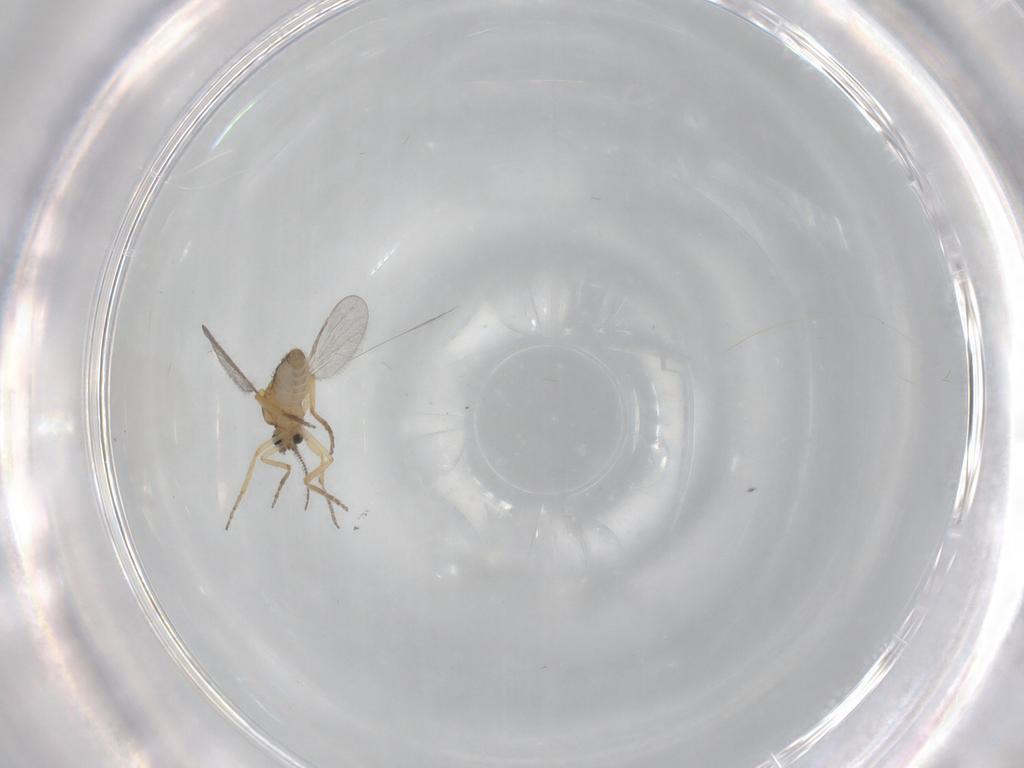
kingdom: Animalia
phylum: Arthropoda
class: Insecta
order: Diptera
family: Ceratopogonidae
